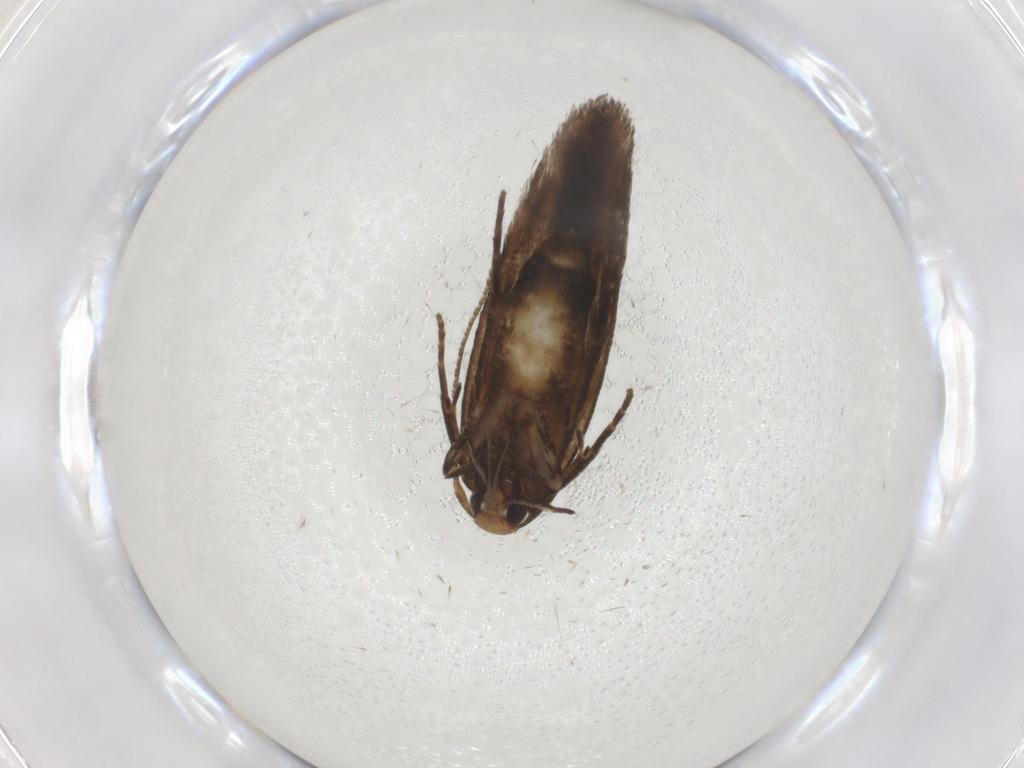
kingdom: Animalia
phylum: Arthropoda
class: Insecta
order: Lepidoptera
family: Cosmopterigidae
